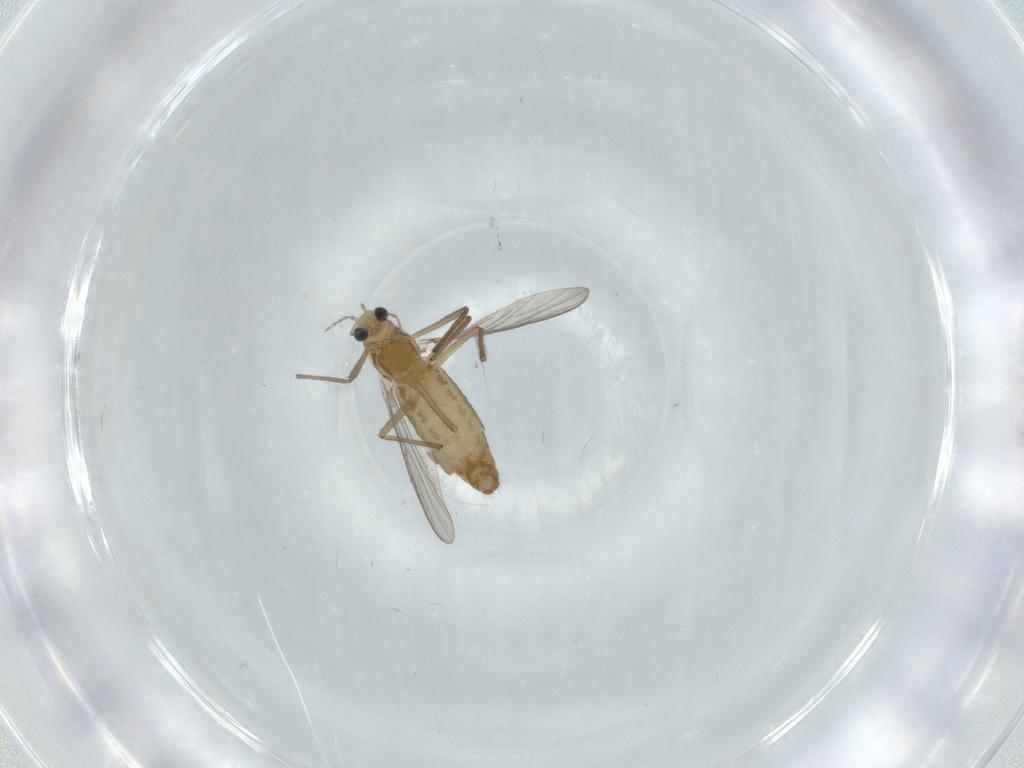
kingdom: Animalia
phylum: Arthropoda
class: Insecta
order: Diptera
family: Chironomidae
